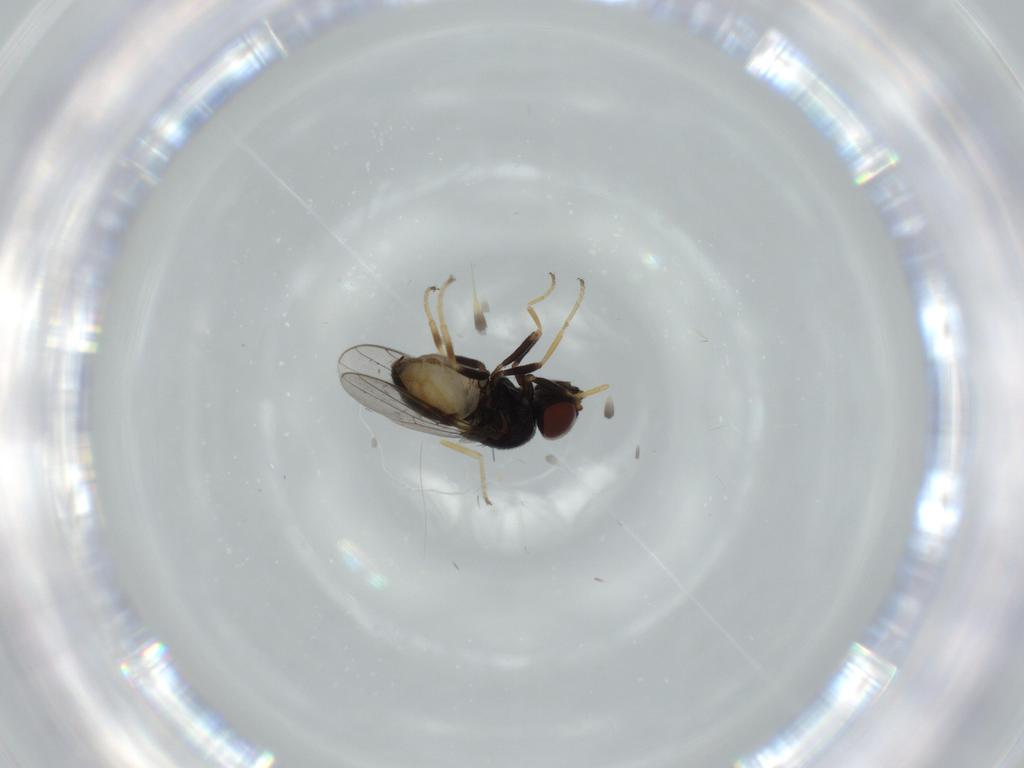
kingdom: Animalia
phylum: Arthropoda
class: Insecta
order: Diptera
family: Chloropidae
